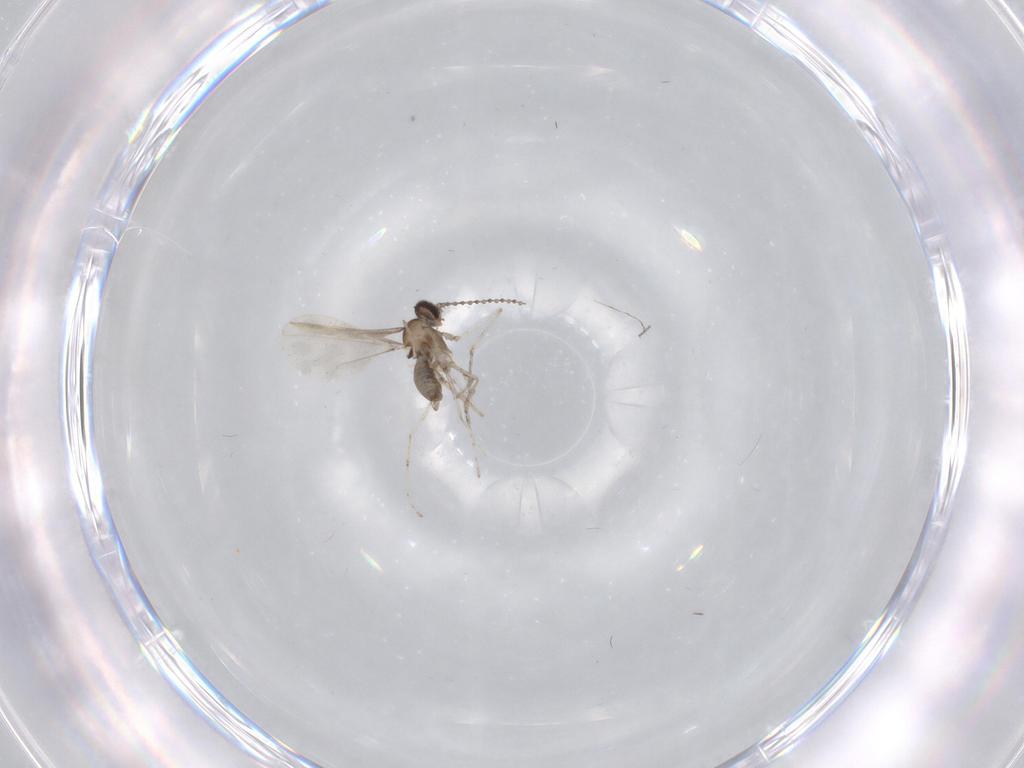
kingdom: Animalia
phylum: Arthropoda
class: Insecta
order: Diptera
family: Cecidomyiidae
